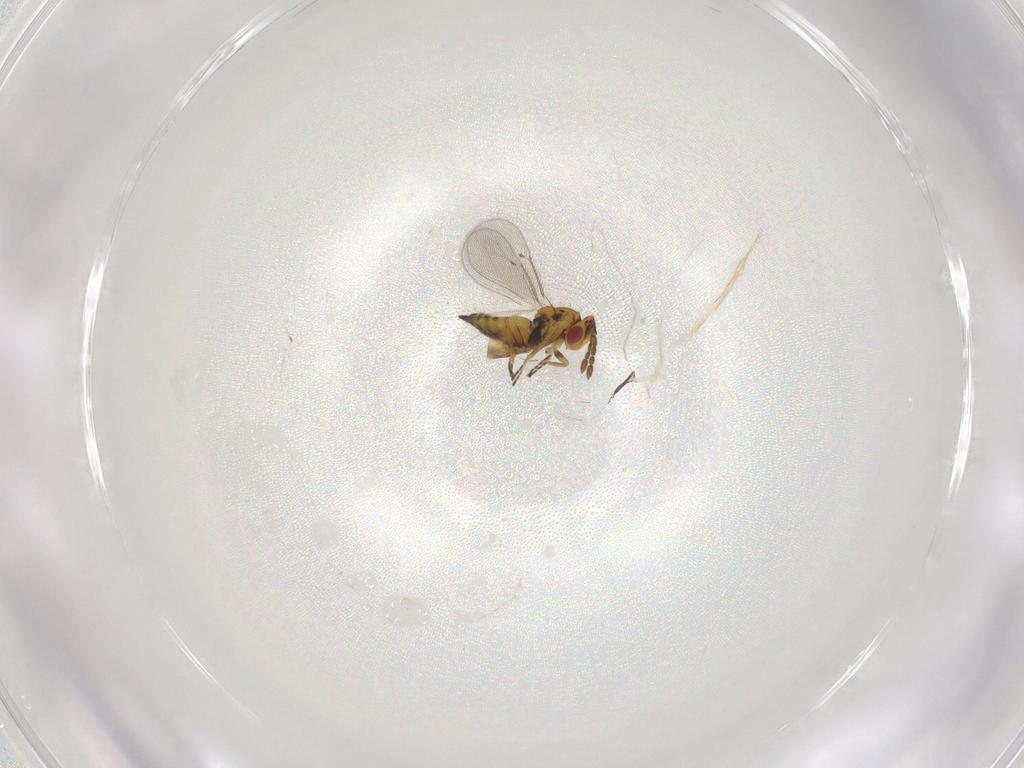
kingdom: Animalia
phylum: Arthropoda
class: Insecta
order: Hymenoptera
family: Eulophidae
